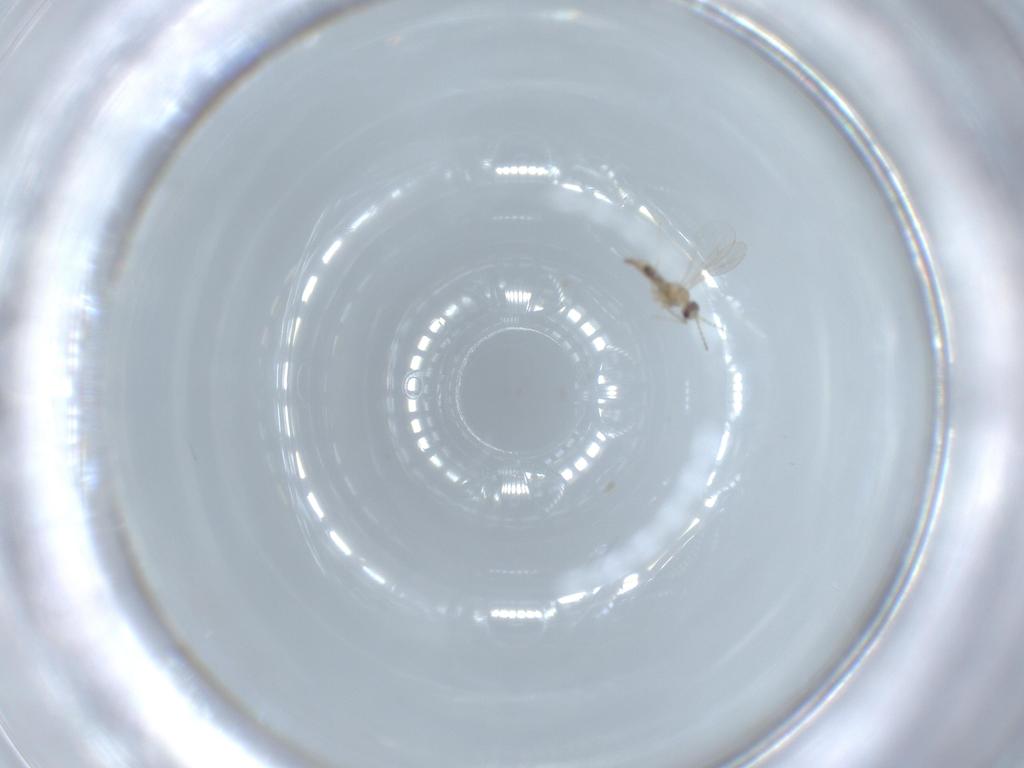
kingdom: Animalia
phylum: Arthropoda
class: Insecta
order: Diptera
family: Cecidomyiidae
